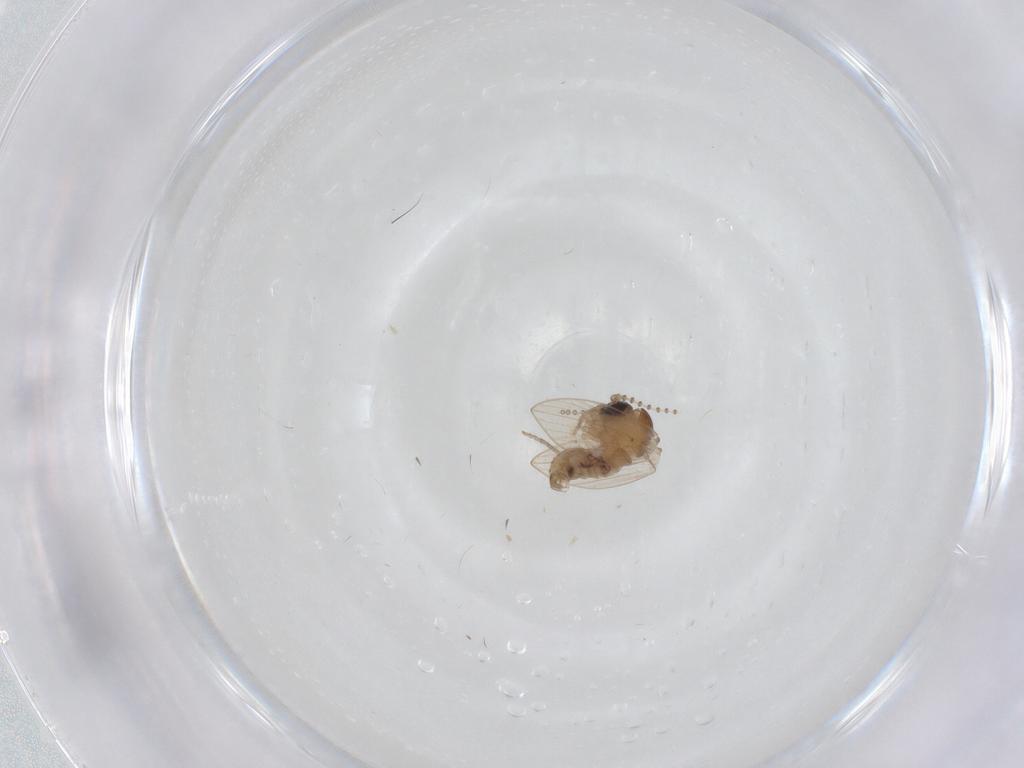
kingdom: Animalia
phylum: Arthropoda
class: Insecta
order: Diptera
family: Psychodidae
